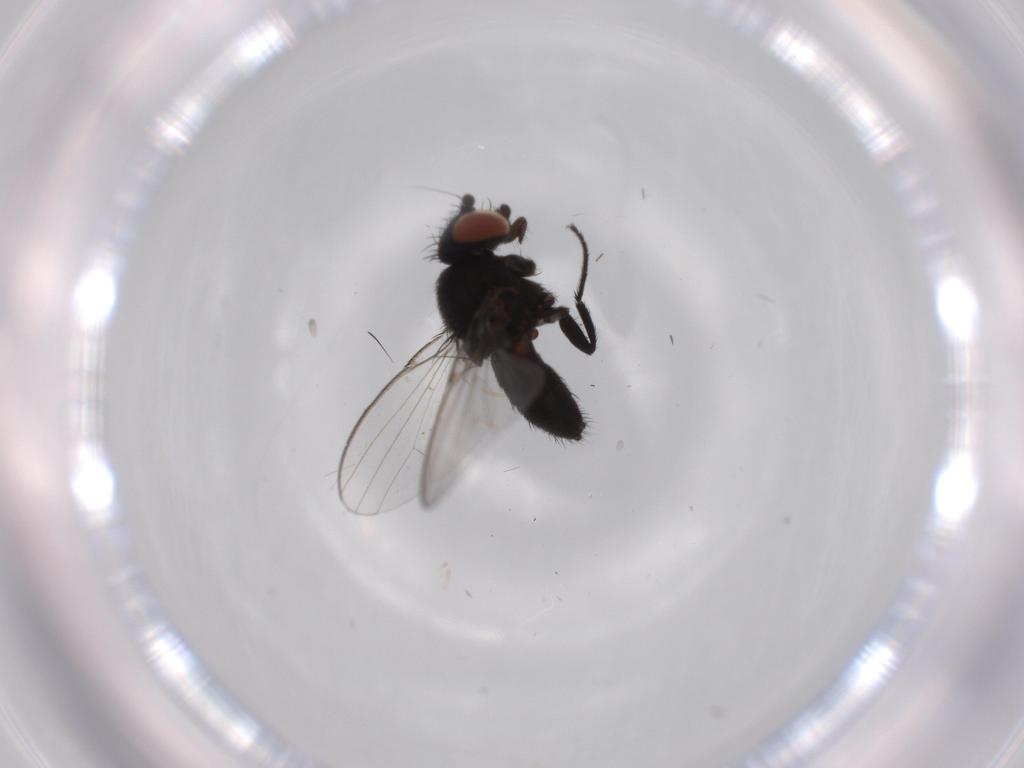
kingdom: Animalia
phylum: Arthropoda
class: Insecta
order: Diptera
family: Milichiidae
